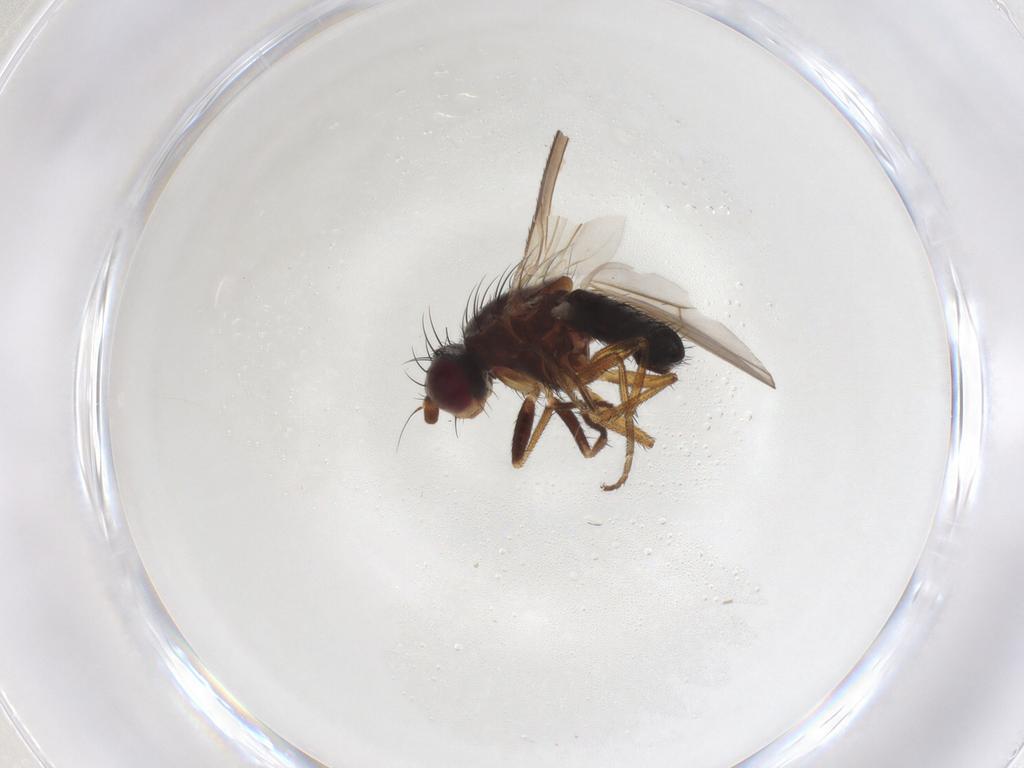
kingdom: Animalia
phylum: Arthropoda
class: Insecta
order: Diptera
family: Heleomyzidae
